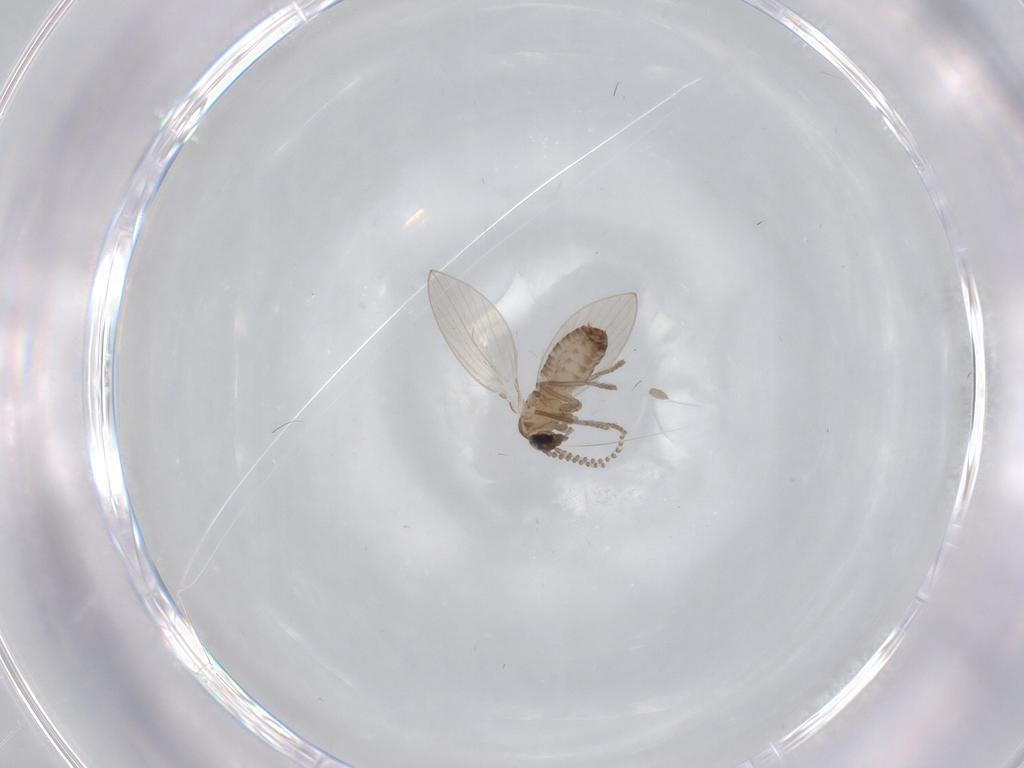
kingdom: Animalia
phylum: Arthropoda
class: Insecta
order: Diptera
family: Psychodidae
